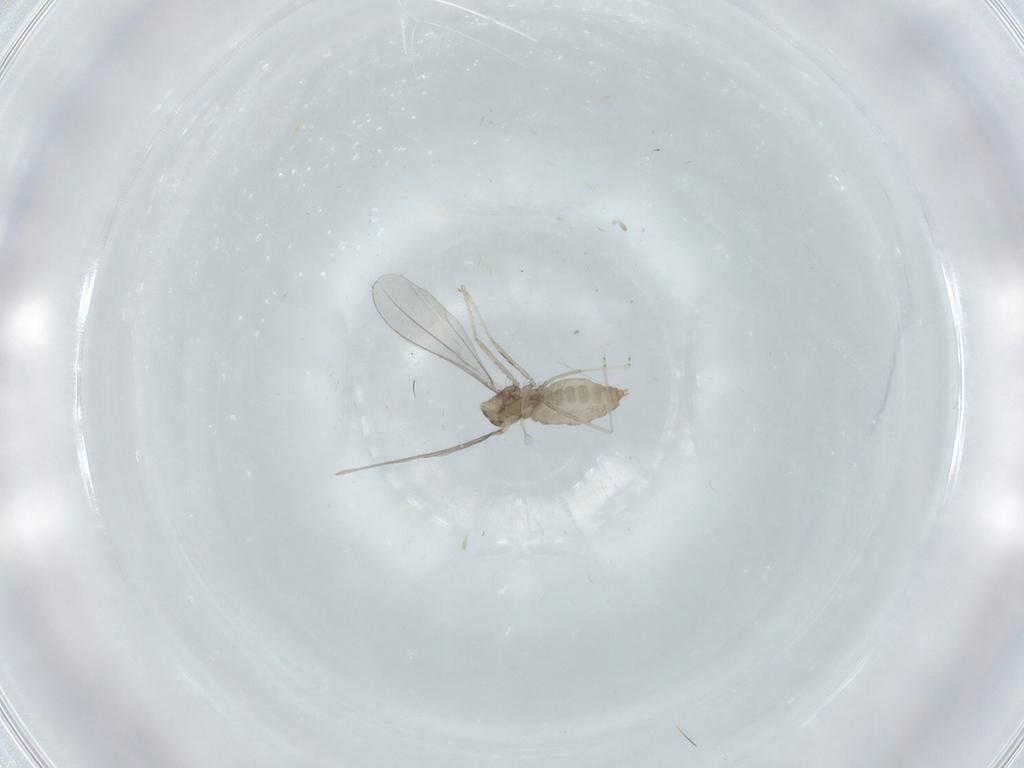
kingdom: Animalia
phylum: Arthropoda
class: Insecta
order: Diptera
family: Cecidomyiidae
